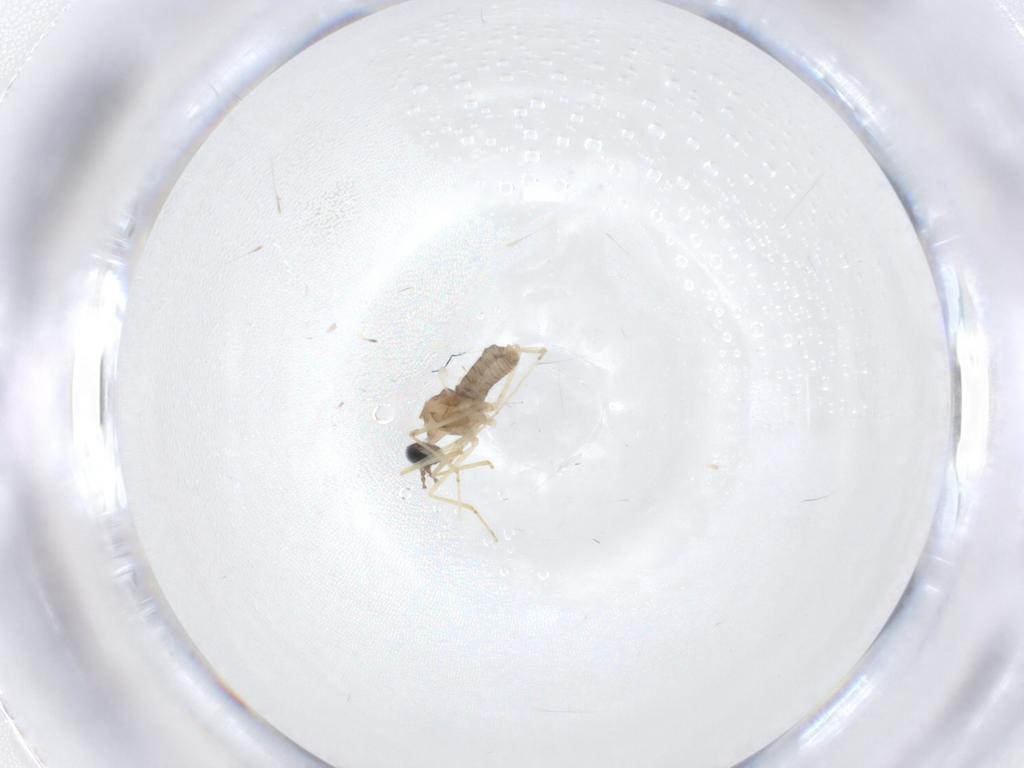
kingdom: Animalia
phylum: Arthropoda
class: Insecta
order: Diptera
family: Cecidomyiidae
